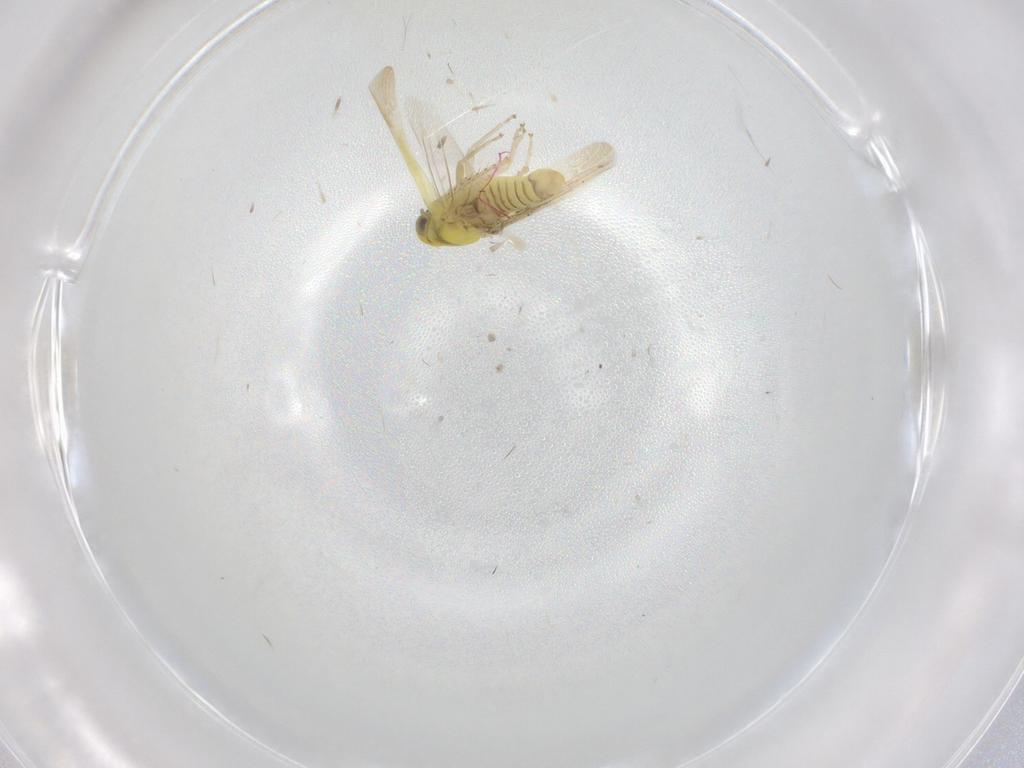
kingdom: Animalia
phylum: Arthropoda
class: Insecta
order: Hemiptera
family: Cicadellidae
